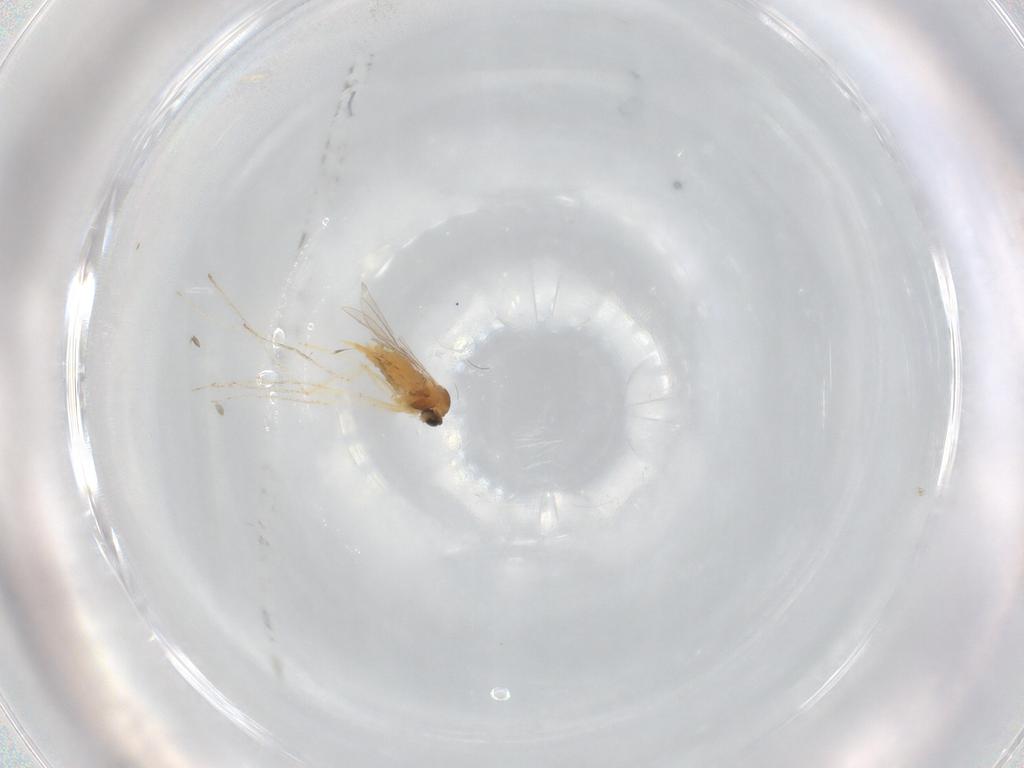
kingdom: Animalia
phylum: Arthropoda
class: Insecta
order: Diptera
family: Cecidomyiidae
